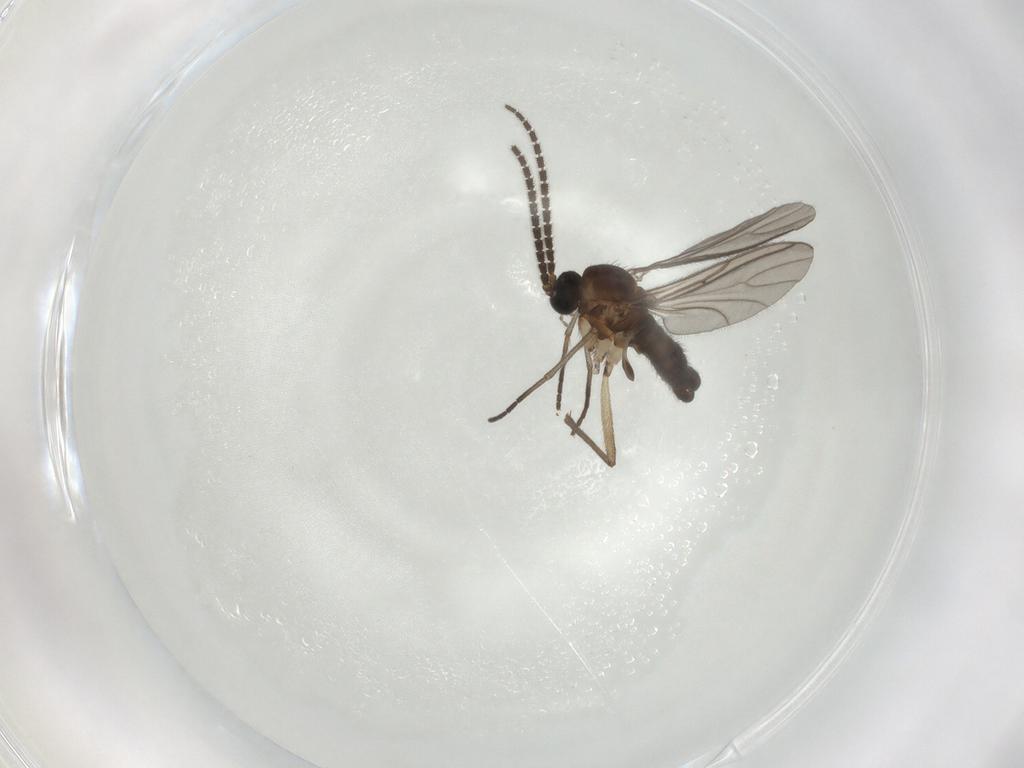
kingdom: Animalia
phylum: Arthropoda
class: Insecta
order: Diptera
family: Sciaridae
